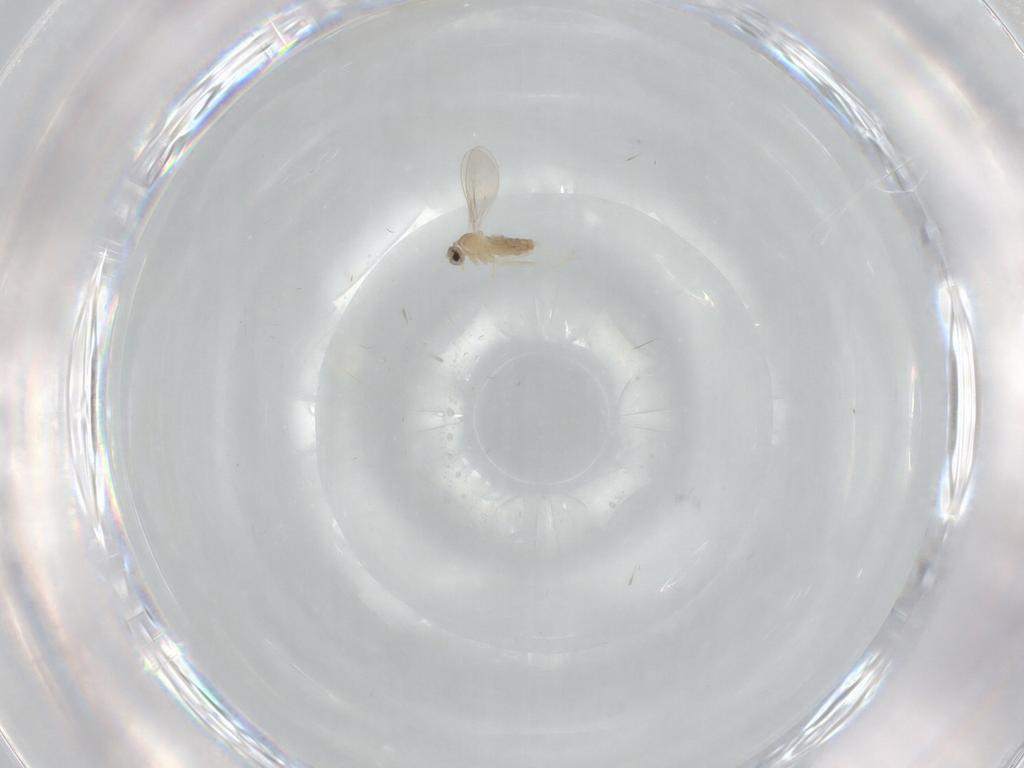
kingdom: Animalia
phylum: Arthropoda
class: Insecta
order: Diptera
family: Cecidomyiidae
